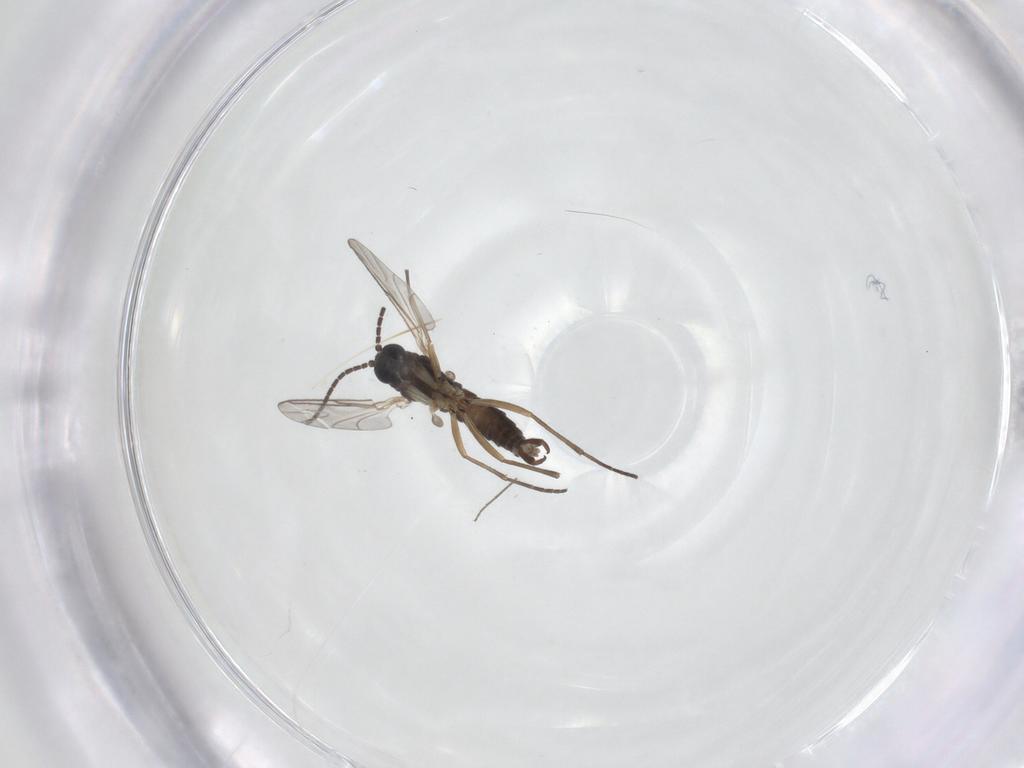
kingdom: Animalia
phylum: Arthropoda
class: Insecta
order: Diptera
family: Sciaridae
